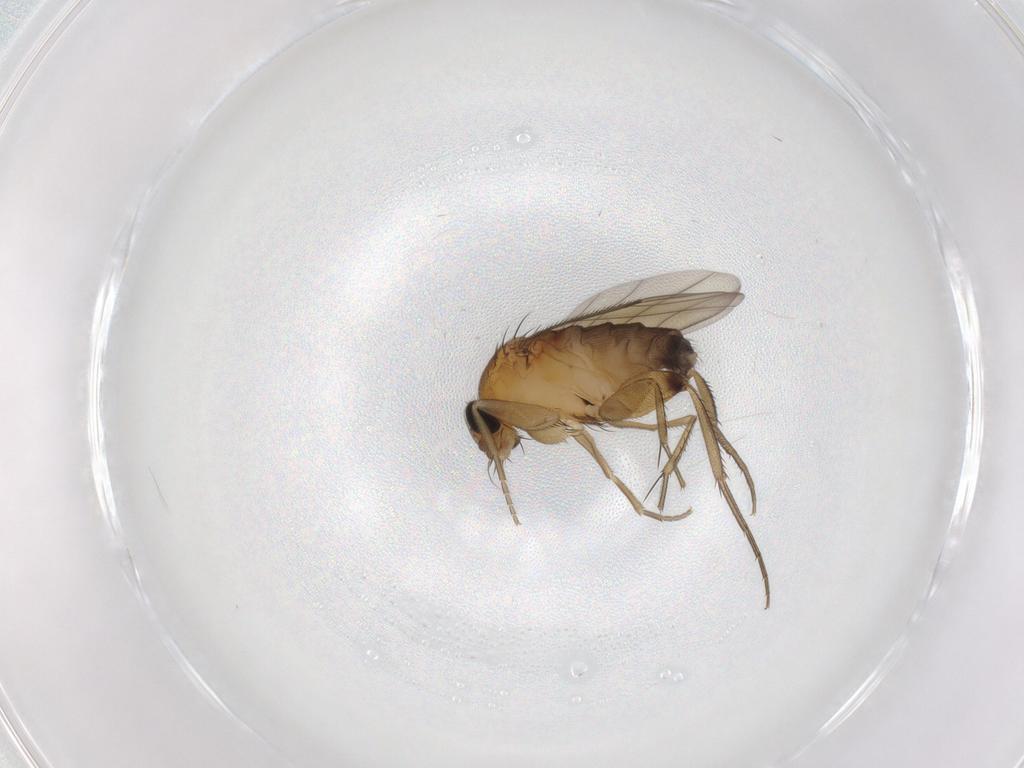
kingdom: Animalia
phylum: Arthropoda
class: Insecta
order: Diptera
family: Phoridae
